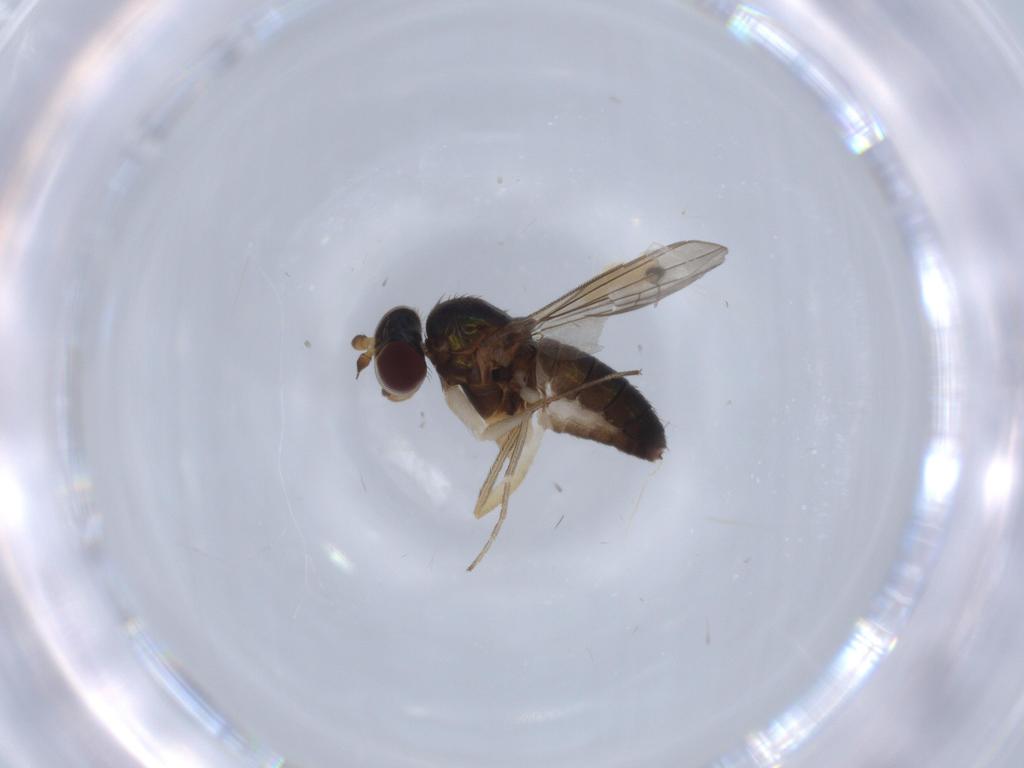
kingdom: Animalia
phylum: Arthropoda
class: Insecta
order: Diptera
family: Cecidomyiidae
